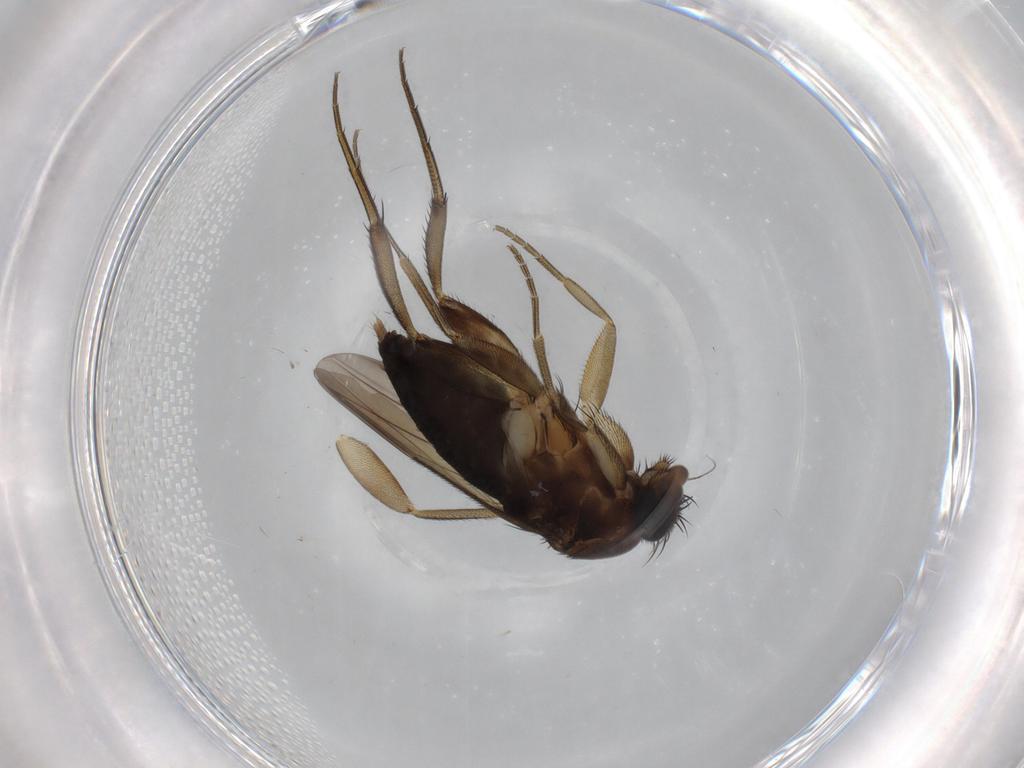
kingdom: Animalia
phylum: Arthropoda
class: Insecta
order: Diptera
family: Phoridae
